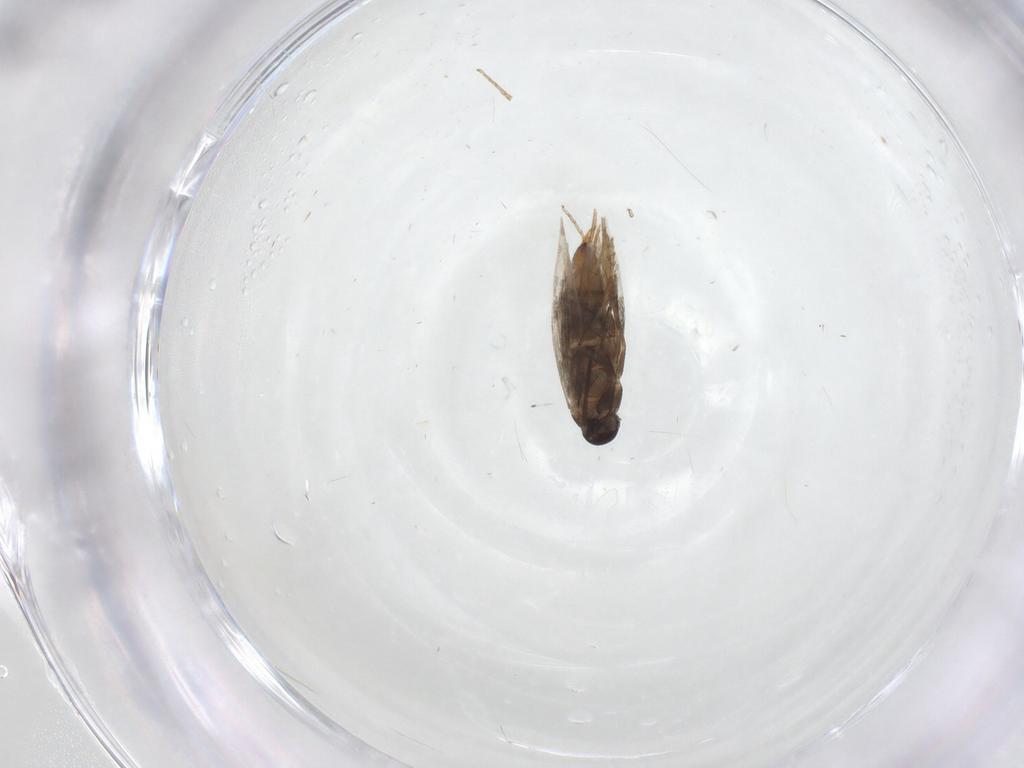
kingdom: Animalia
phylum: Arthropoda
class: Insecta
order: Lepidoptera
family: Heliozelidae
